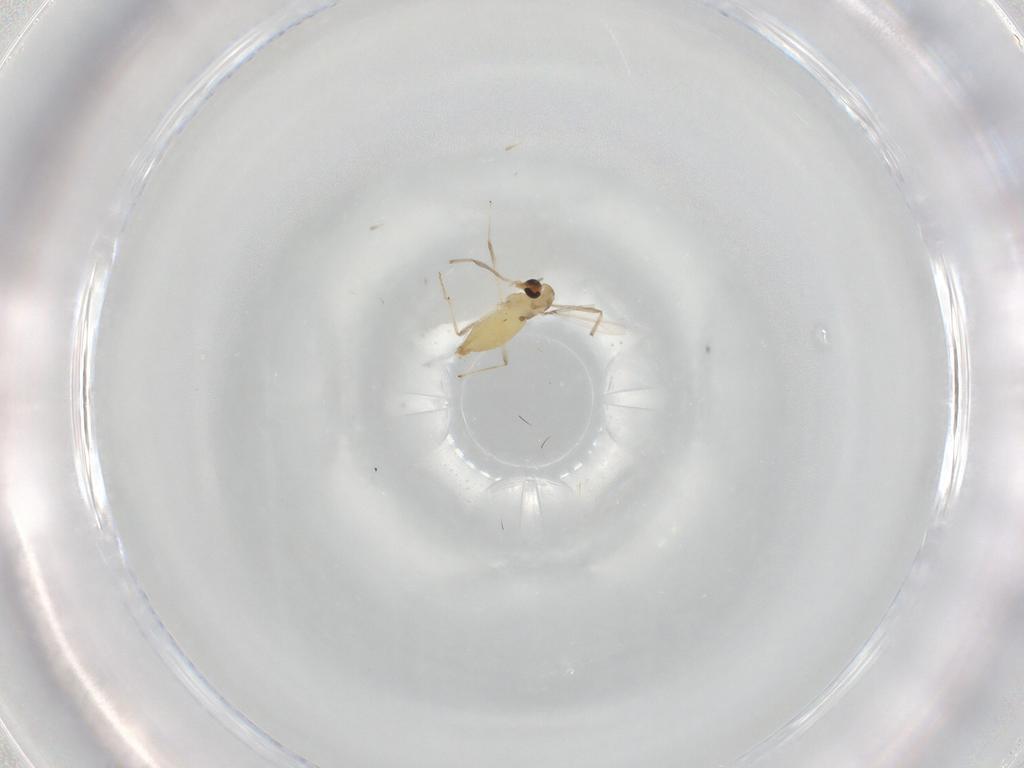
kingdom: Animalia
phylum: Arthropoda
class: Insecta
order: Diptera
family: Chironomidae
